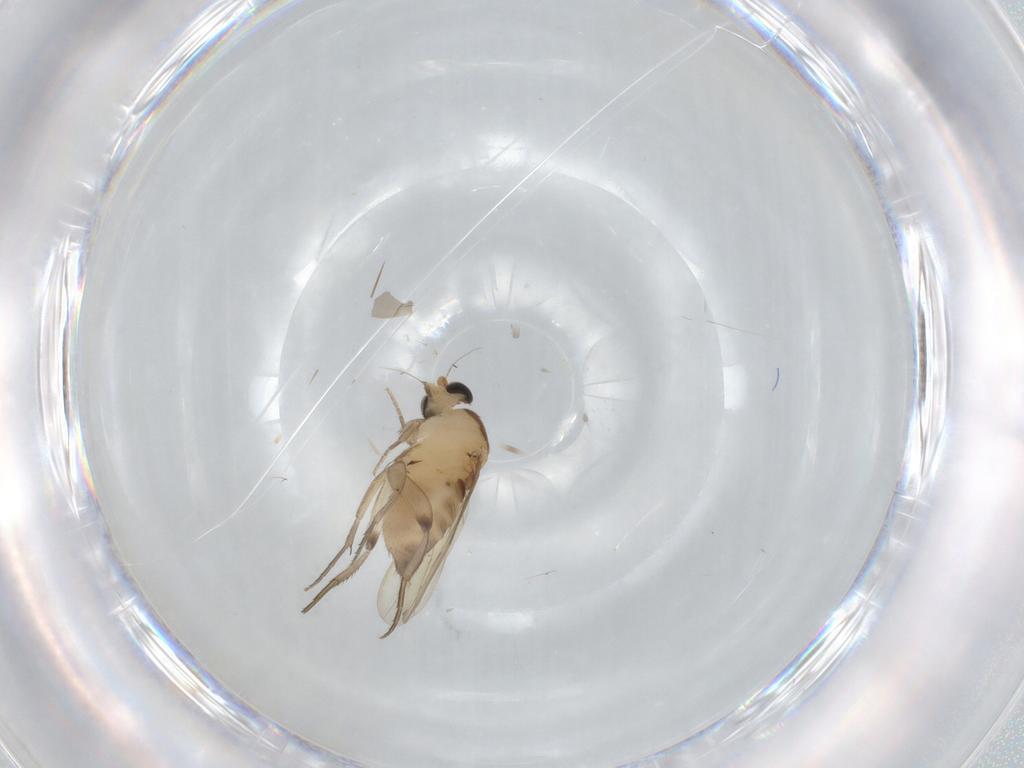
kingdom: Animalia
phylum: Arthropoda
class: Insecta
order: Diptera
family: Phoridae
